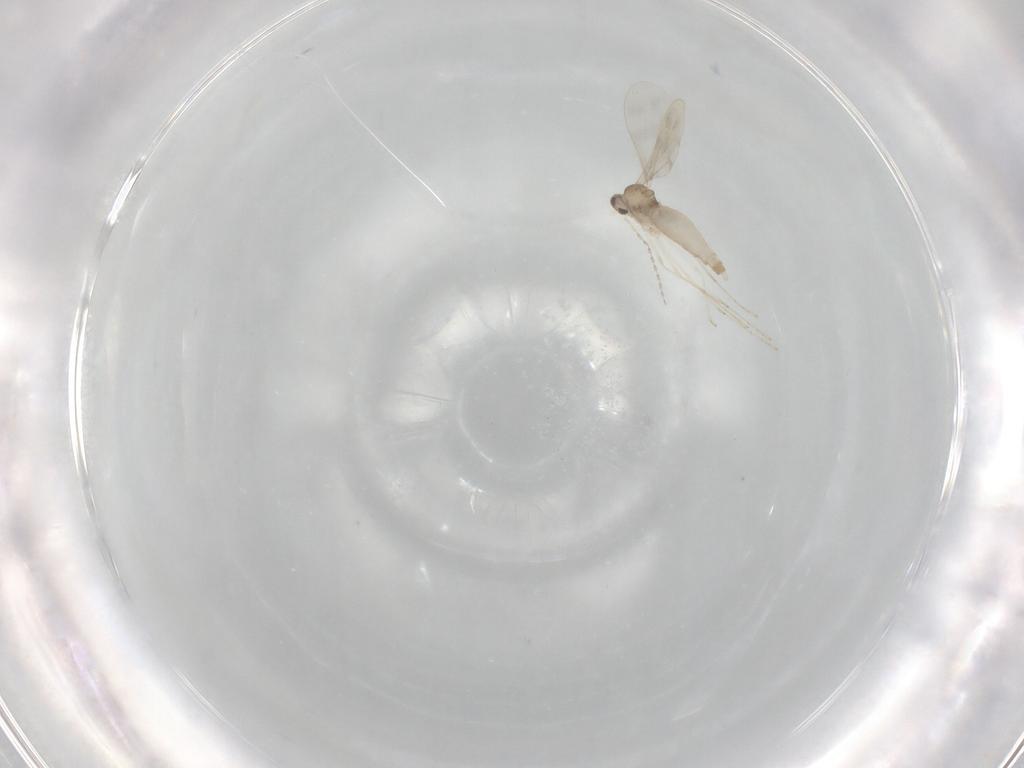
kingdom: Animalia
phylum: Arthropoda
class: Insecta
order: Diptera
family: Cecidomyiidae
